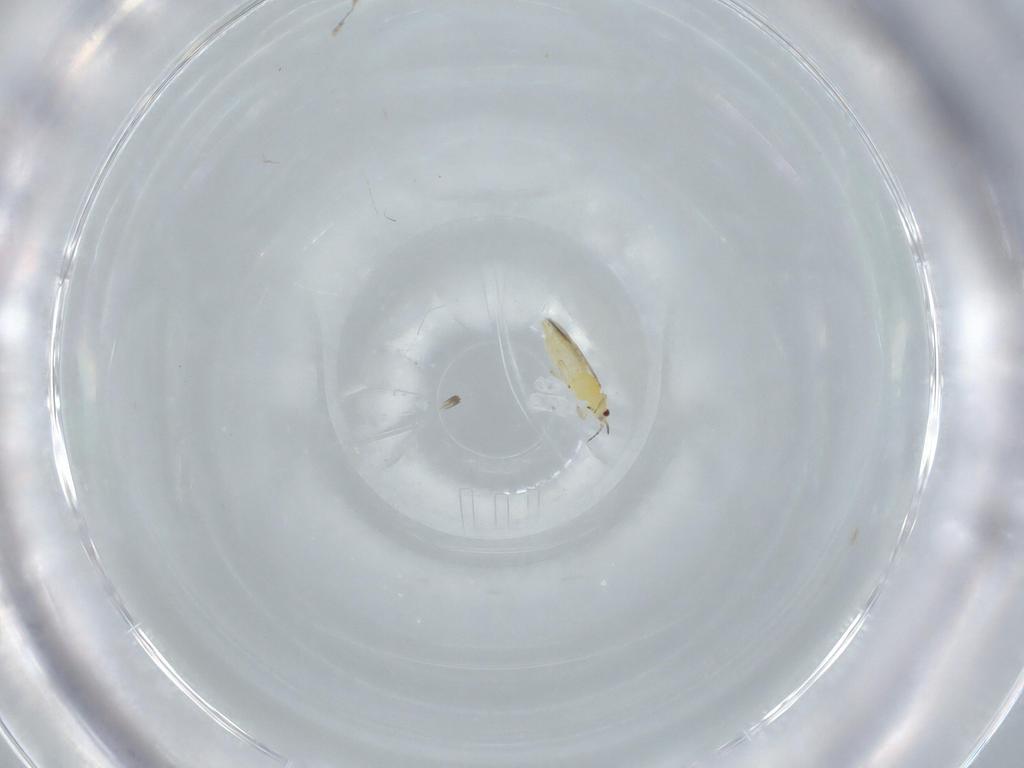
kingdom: Animalia
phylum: Arthropoda
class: Insecta
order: Thysanoptera
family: Thripidae
